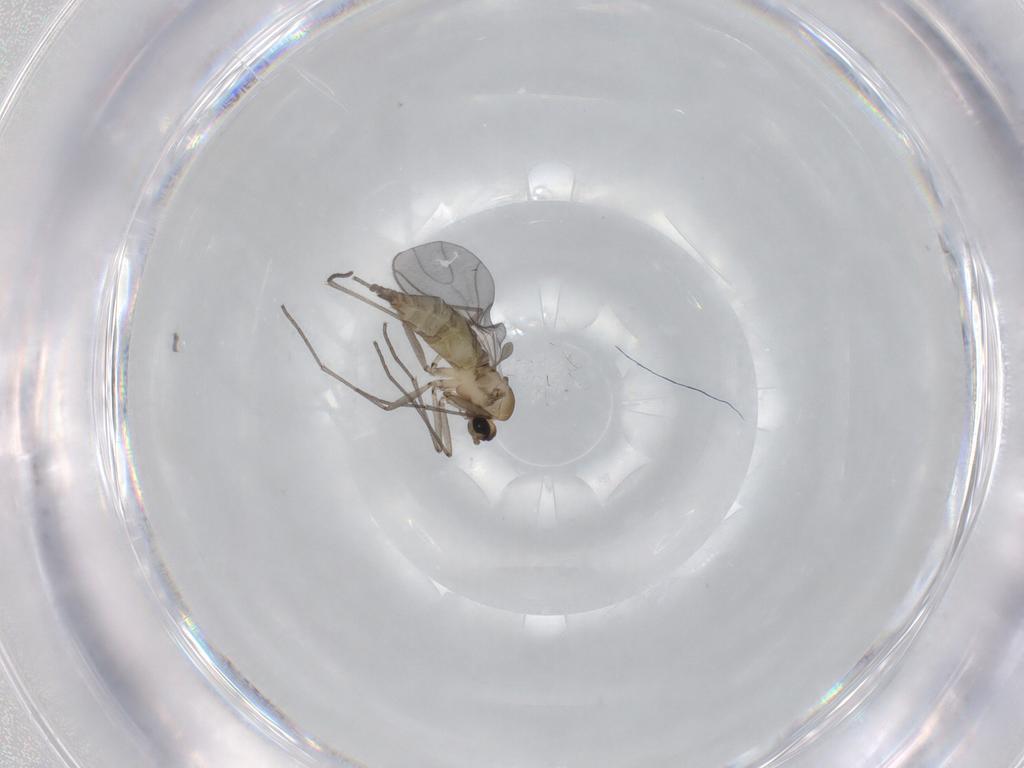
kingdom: Animalia
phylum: Arthropoda
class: Insecta
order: Diptera
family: Sciaridae
